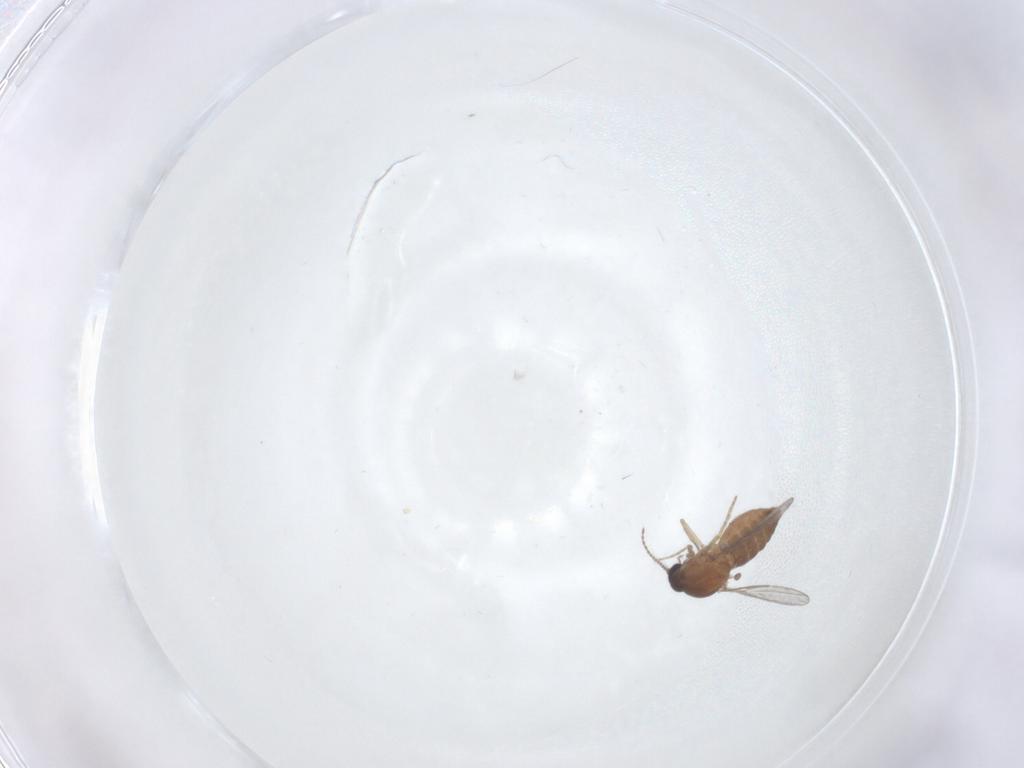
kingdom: Animalia
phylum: Arthropoda
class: Insecta
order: Diptera
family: Ceratopogonidae
